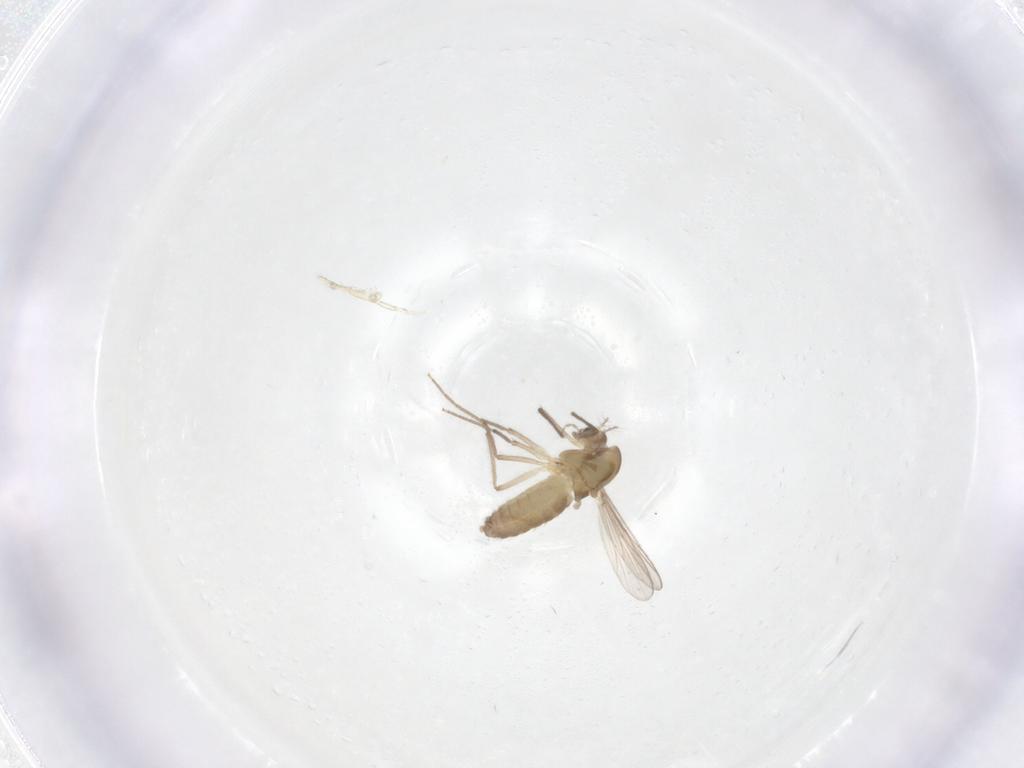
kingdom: Animalia
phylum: Arthropoda
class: Insecta
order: Diptera
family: Chironomidae
